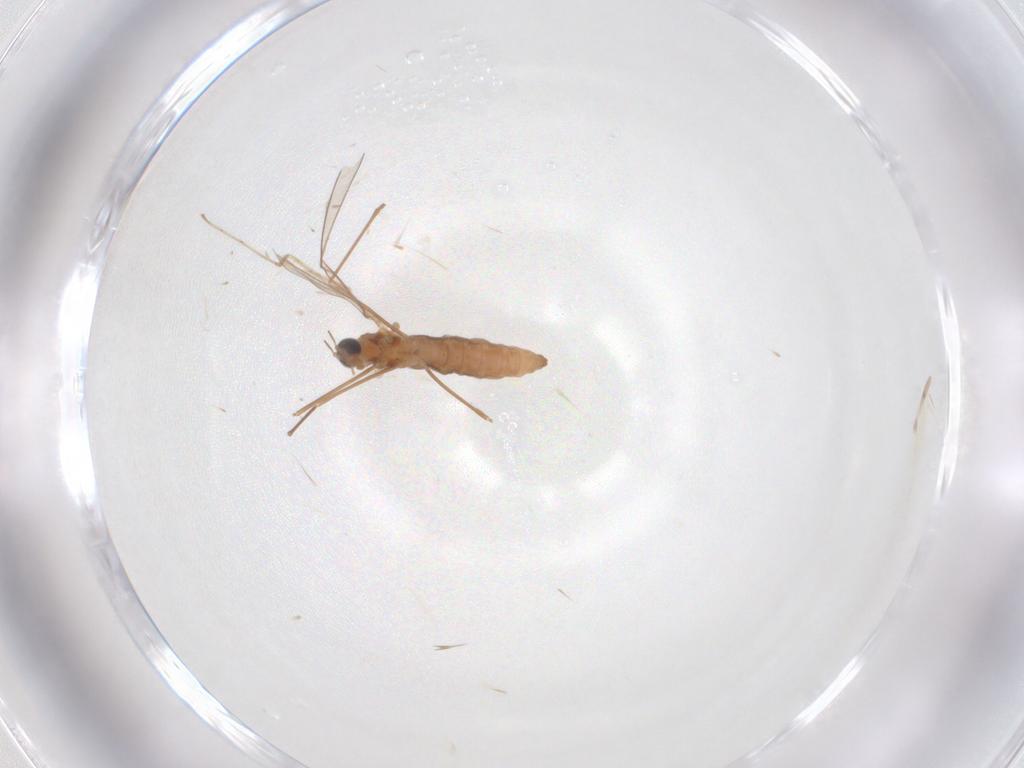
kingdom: Animalia
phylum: Arthropoda
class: Insecta
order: Diptera
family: Cecidomyiidae
